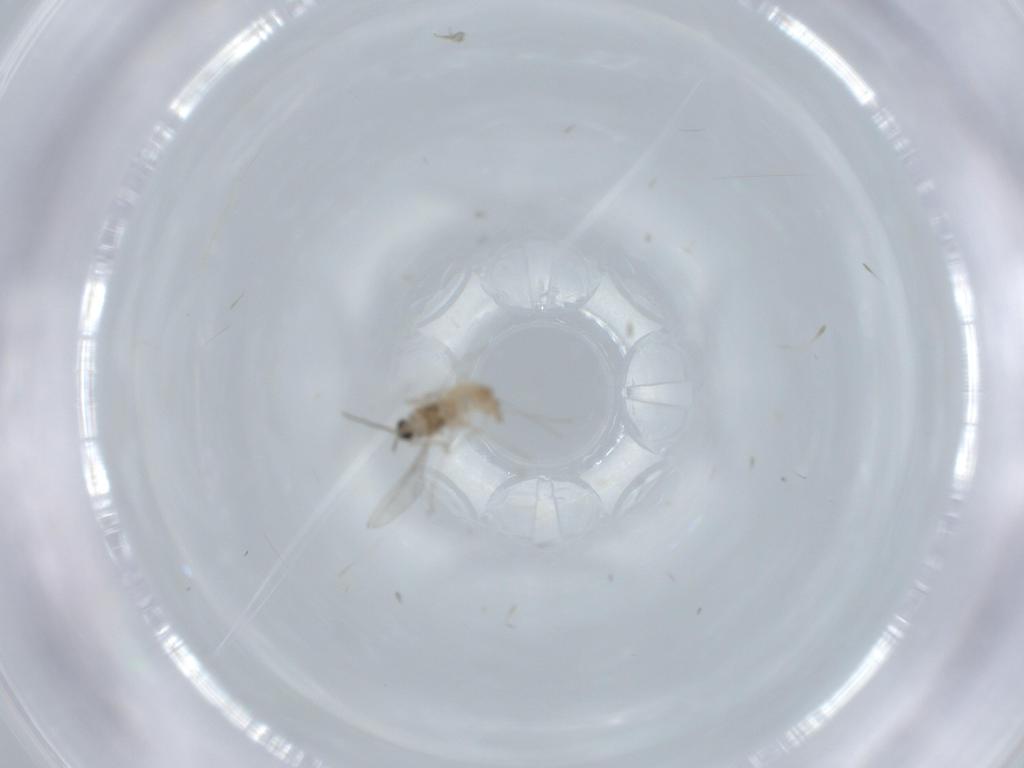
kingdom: Animalia
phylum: Arthropoda
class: Insecta
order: Diptera
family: Cecidomyiidae
